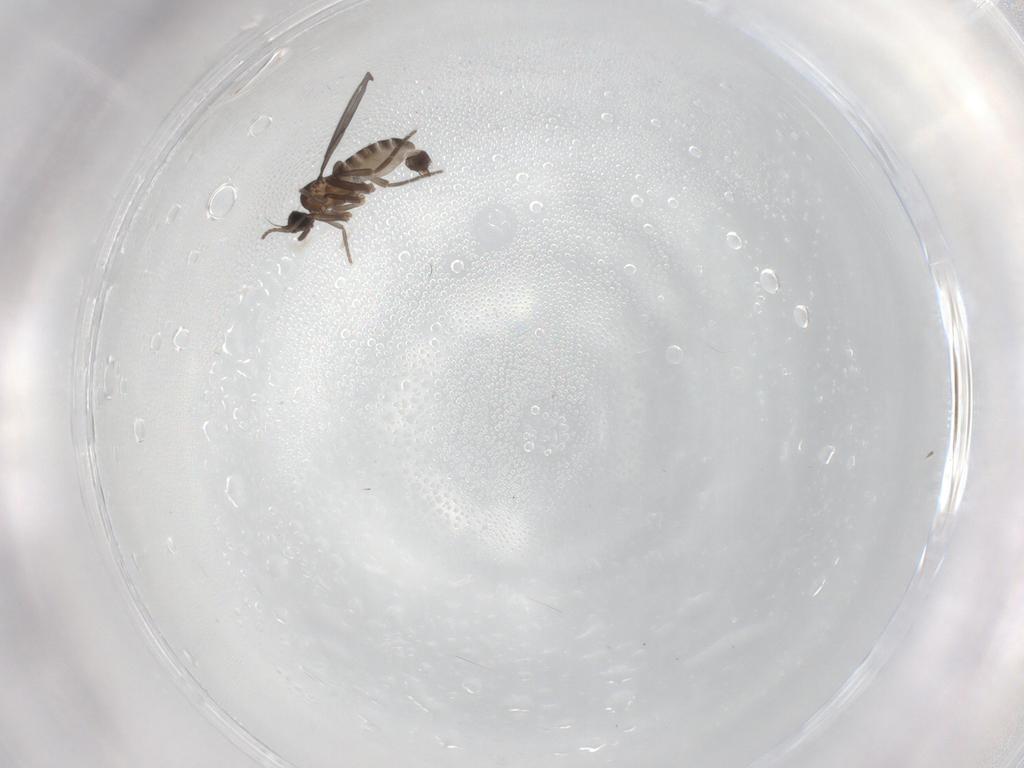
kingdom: Animalia
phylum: Arthropoda
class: Insecta
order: Diptera
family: Phoridae
